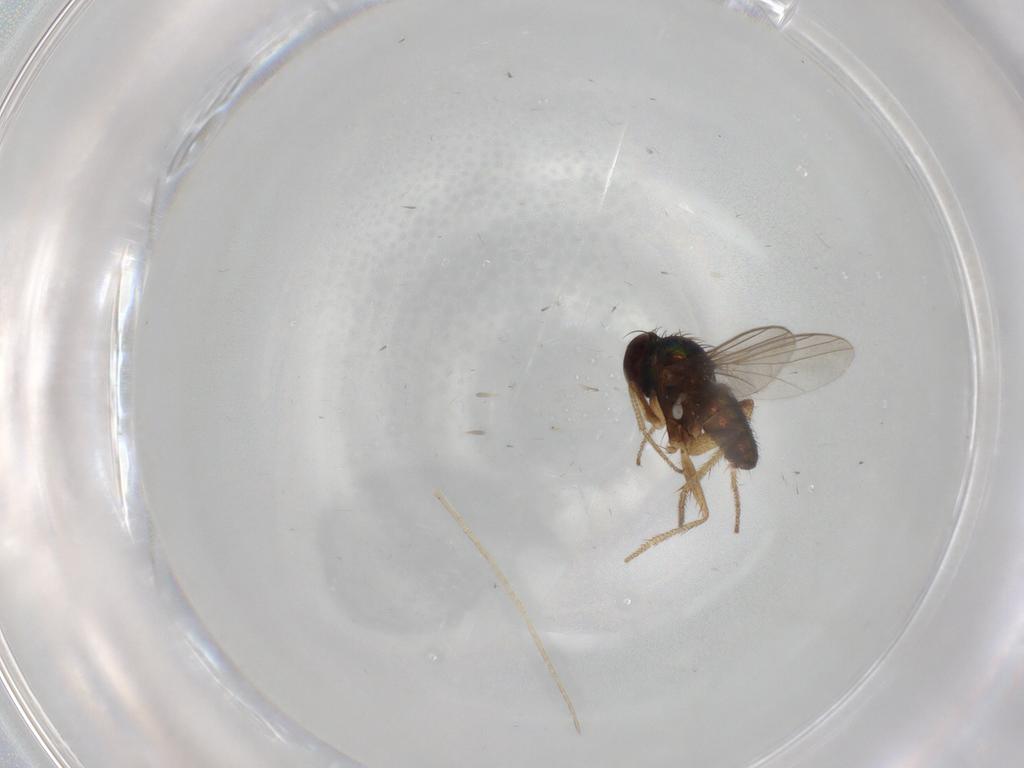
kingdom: Animalia
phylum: Arthropoda
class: Insecta
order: Diptera
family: Dolichopodidae
